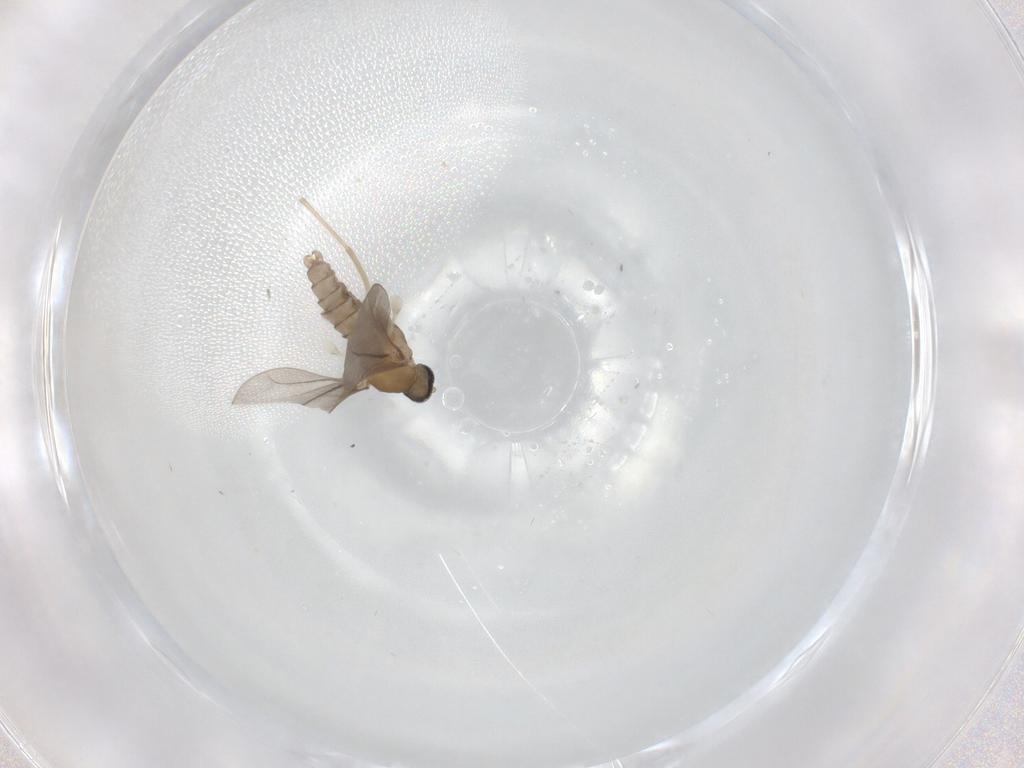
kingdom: Animalia
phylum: Arthropoda
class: Insecta
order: Diptera
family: Cecidomyiidae
